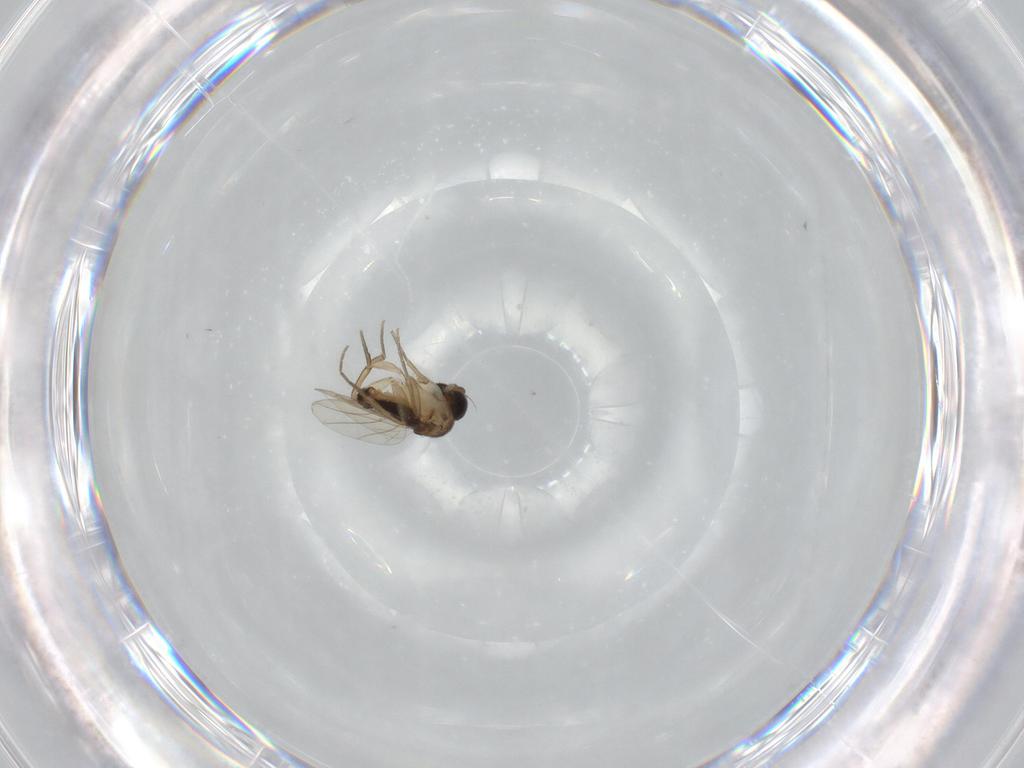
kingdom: Animalia
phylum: Arthropoda
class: Insecta
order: Diptera
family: Phoridae
